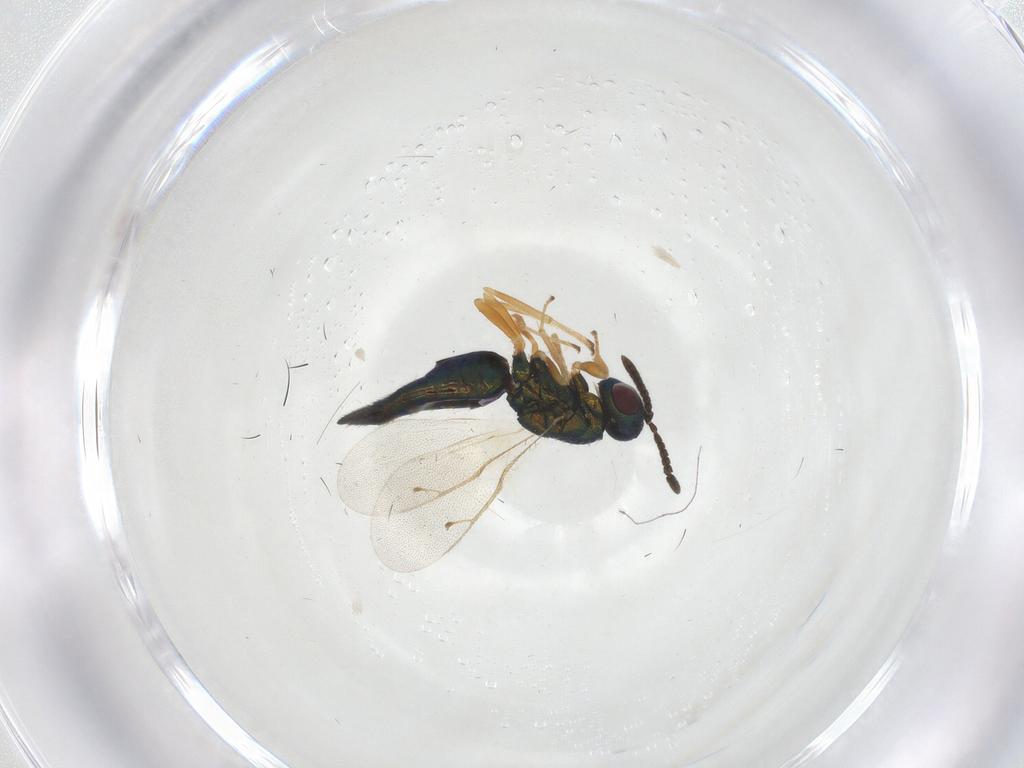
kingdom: Animalia
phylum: Arthropoda
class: Insecta
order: Hymenoptera
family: Pteromalidae
